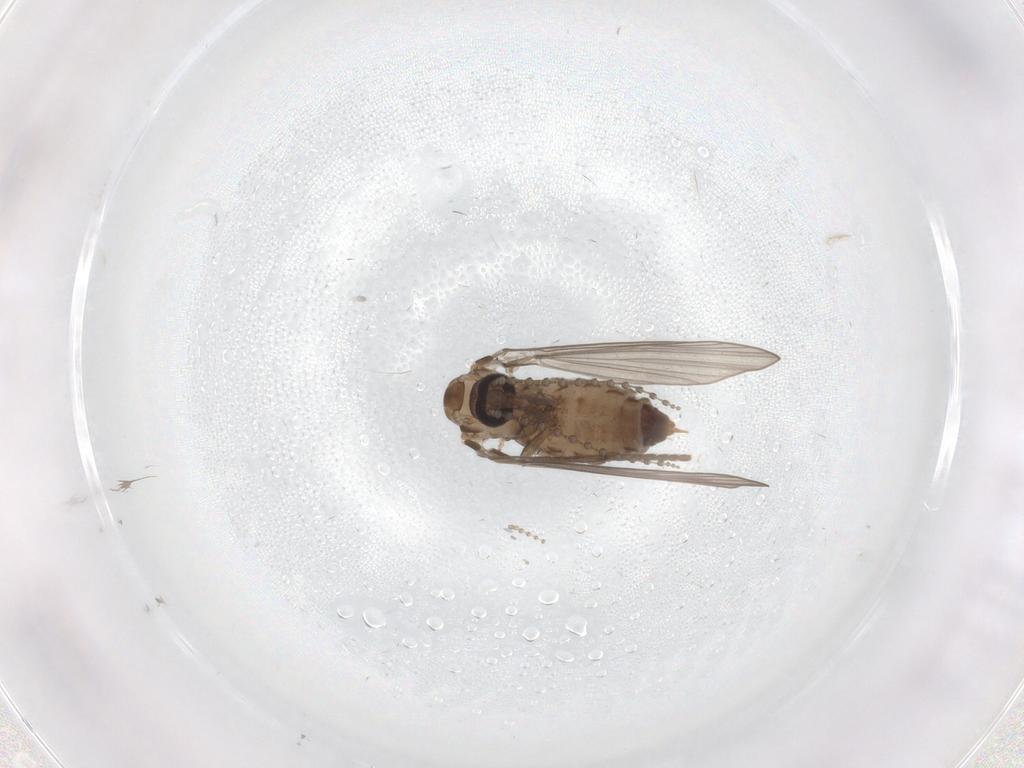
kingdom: Animalia
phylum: Arthropoda
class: Insecta
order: Diptera
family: Psychodidae
